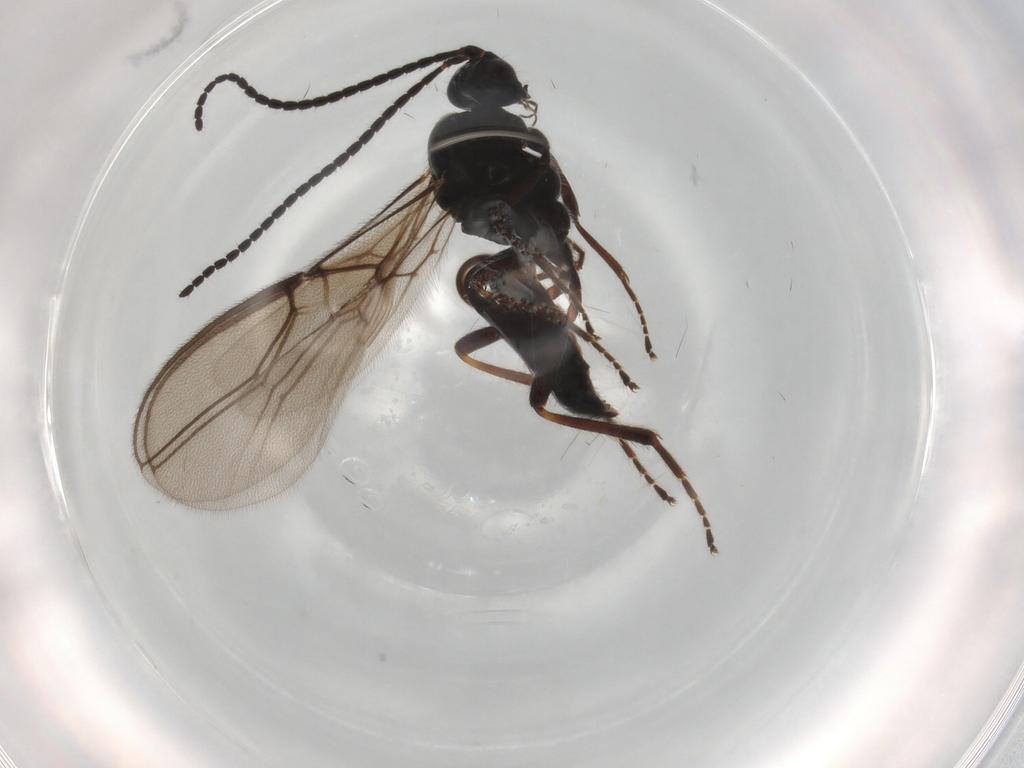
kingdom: Animalia
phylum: Arthropoda
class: Insecta
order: Hymenoptera
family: Braconidae
